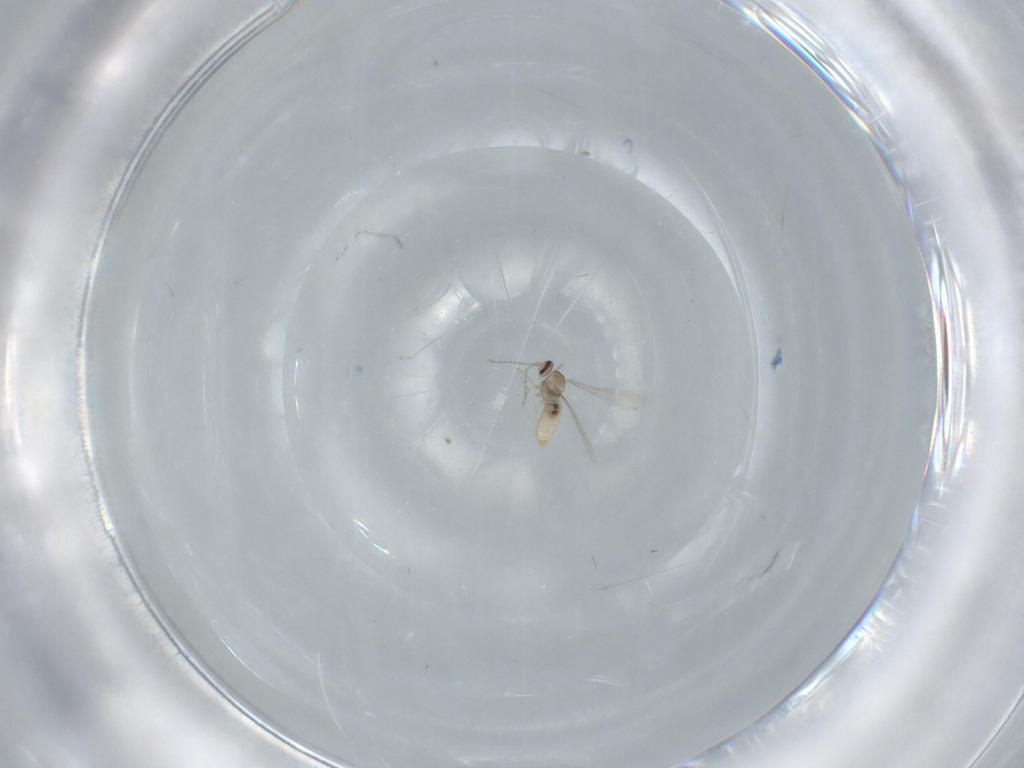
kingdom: Animalia
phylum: Arthropoda
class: Insecta
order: Diptera
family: Cecidomyiidae
